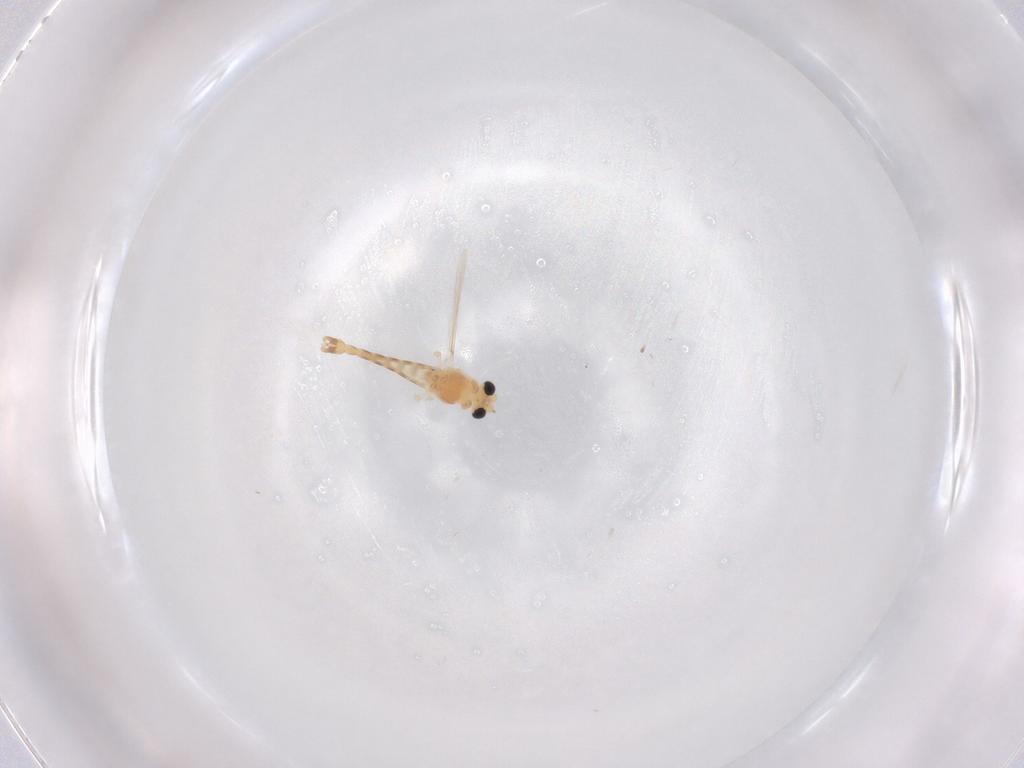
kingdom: Animalia
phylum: Arthropoda
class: Insecta
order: Diptera
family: Chironomidae
